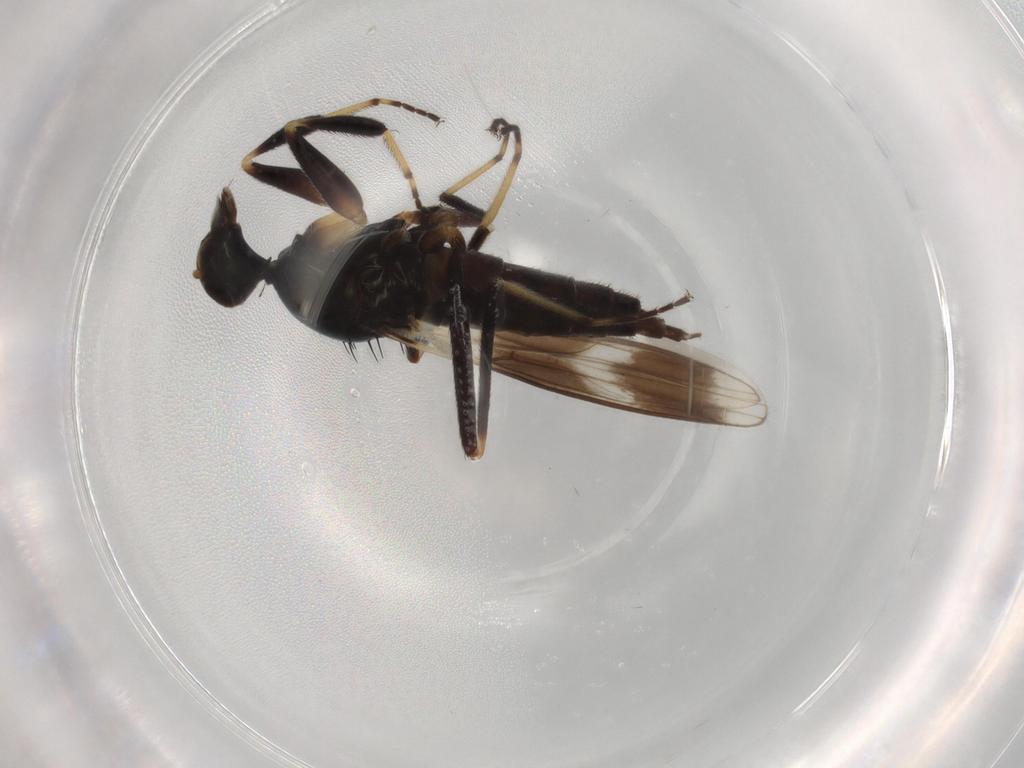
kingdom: Animalia
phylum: Arthropoda
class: Insecta
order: Diptera
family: Hybotidae
